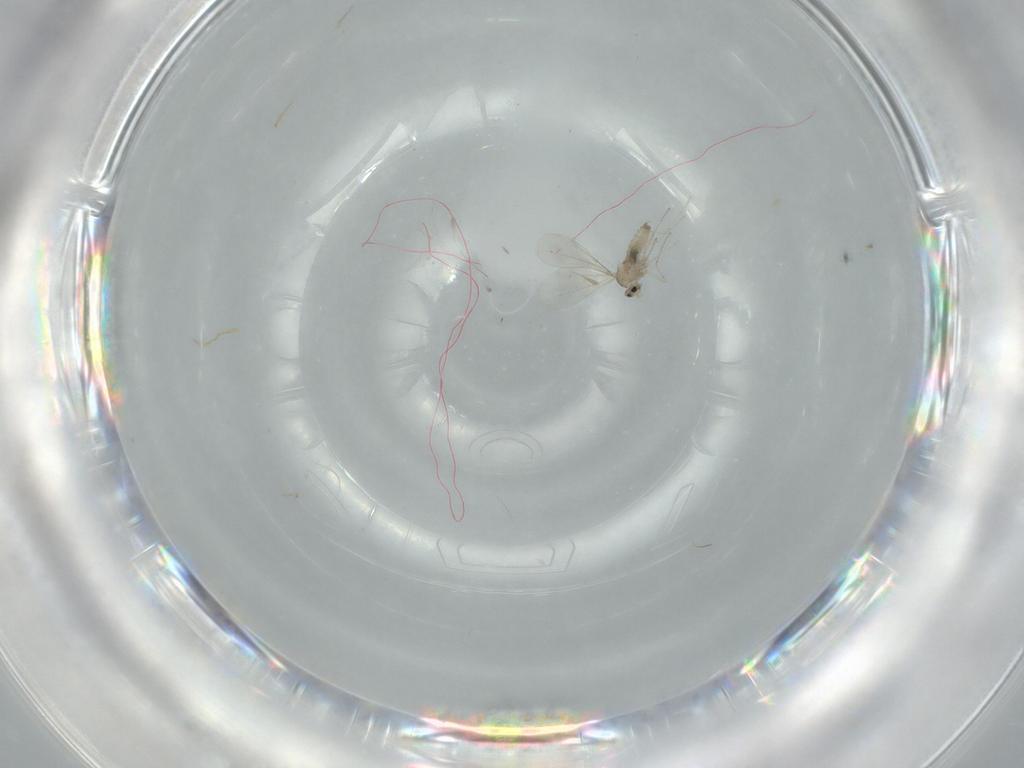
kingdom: Animalia
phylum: Arthropoda
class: Insecta
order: Diptera
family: Cecidomyiidae
